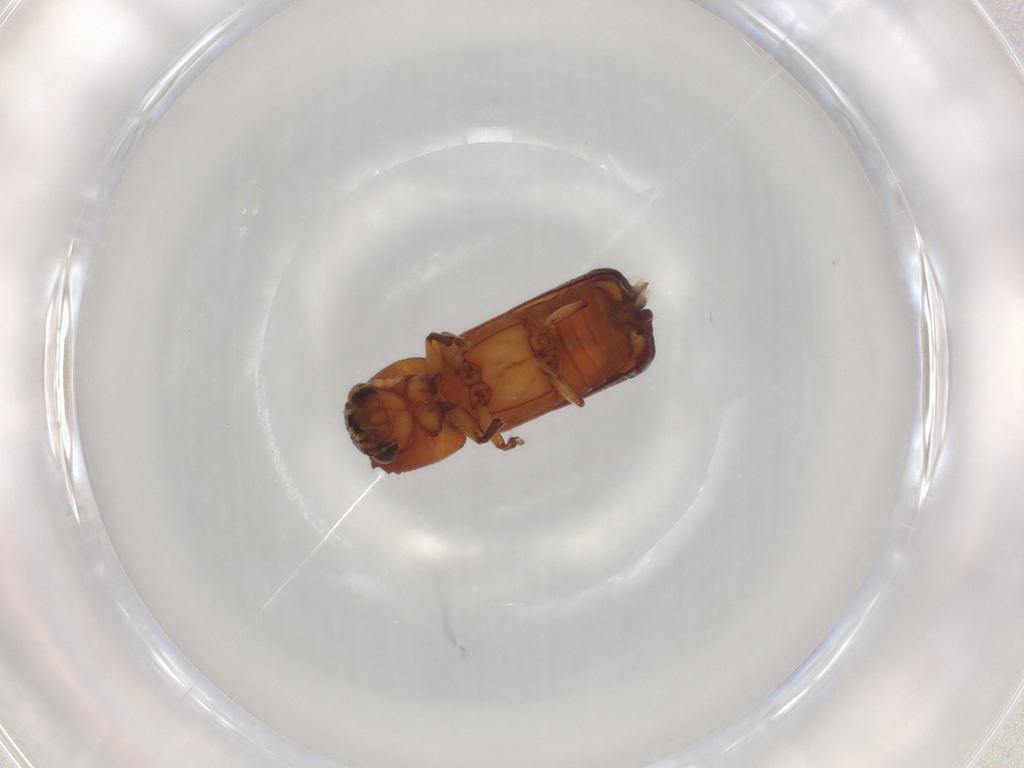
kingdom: Animalia
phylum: Arthropoda
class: Insecta
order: Coleoptera
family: Bostrichidae
